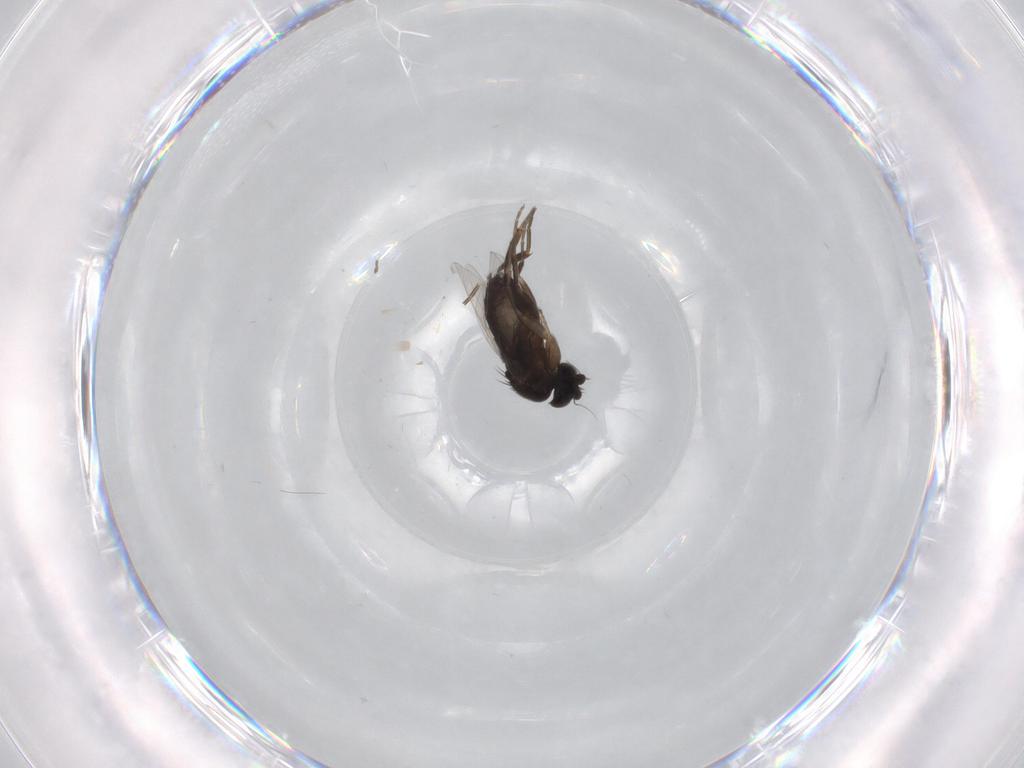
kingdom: Animalia
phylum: Arthropoda
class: Insecta
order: Diptera
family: Phoridae
